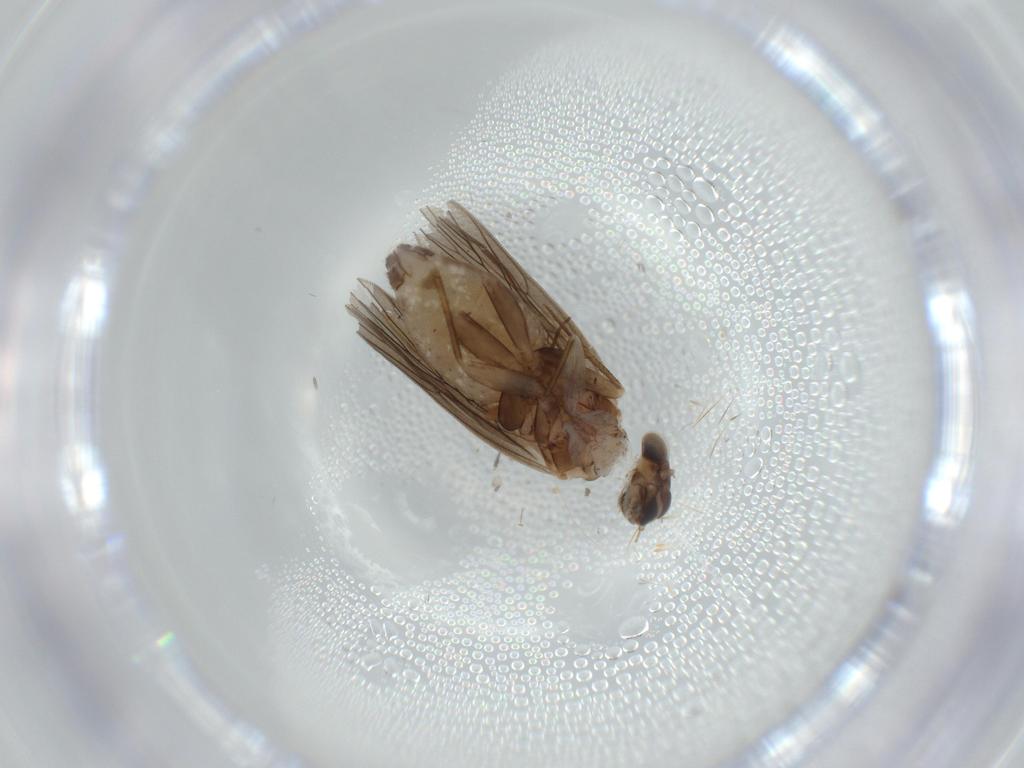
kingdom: Animalia
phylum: Arthropoda
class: Insecta
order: Psocodea
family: Lepidopsocidae
